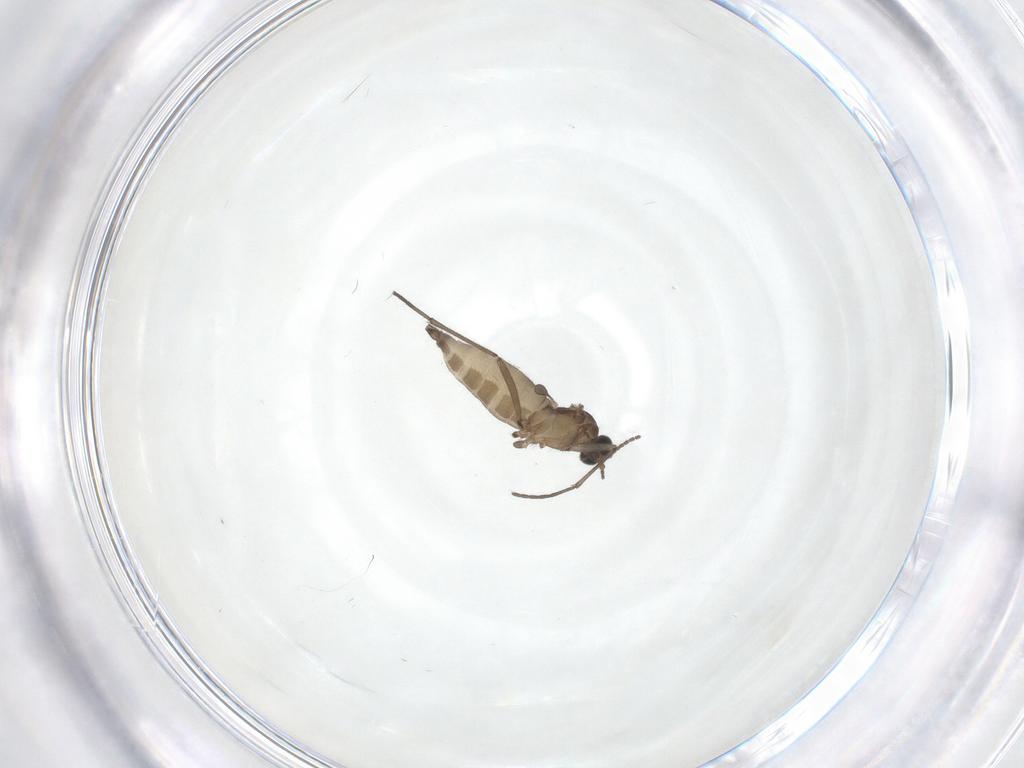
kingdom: Animalia
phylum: Arthropoda
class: Insecta
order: Diptera
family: Sciaridae
